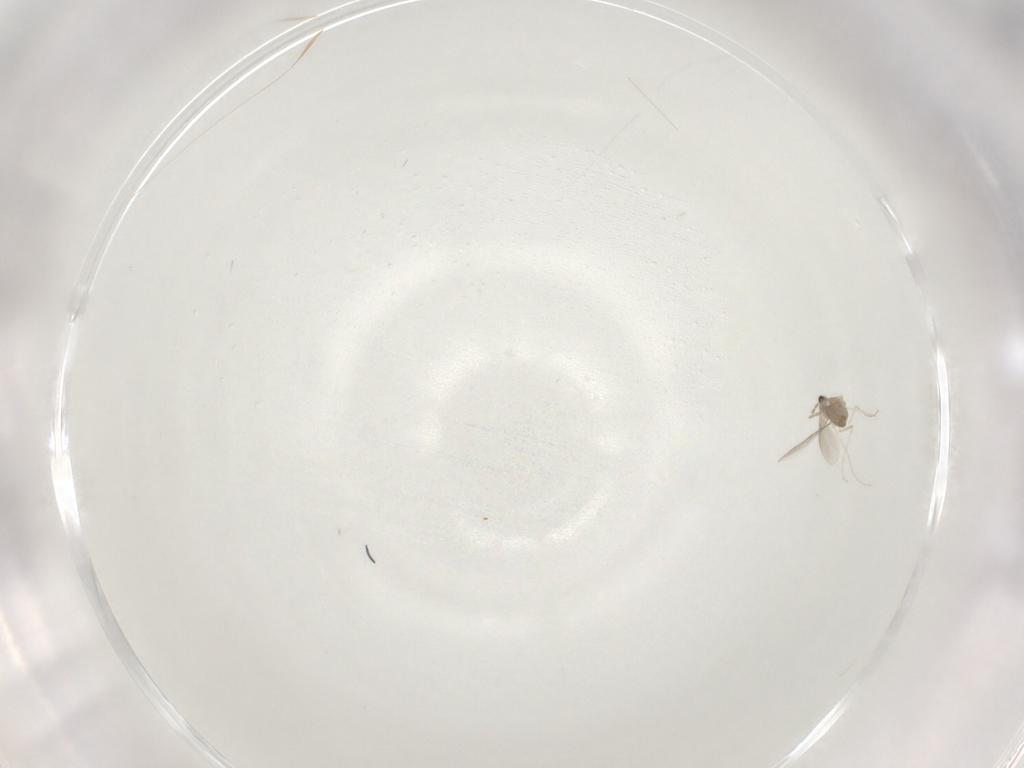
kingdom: Animalia
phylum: Arthropoda
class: Insecta
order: Diptera
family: Cecidomyiidae
